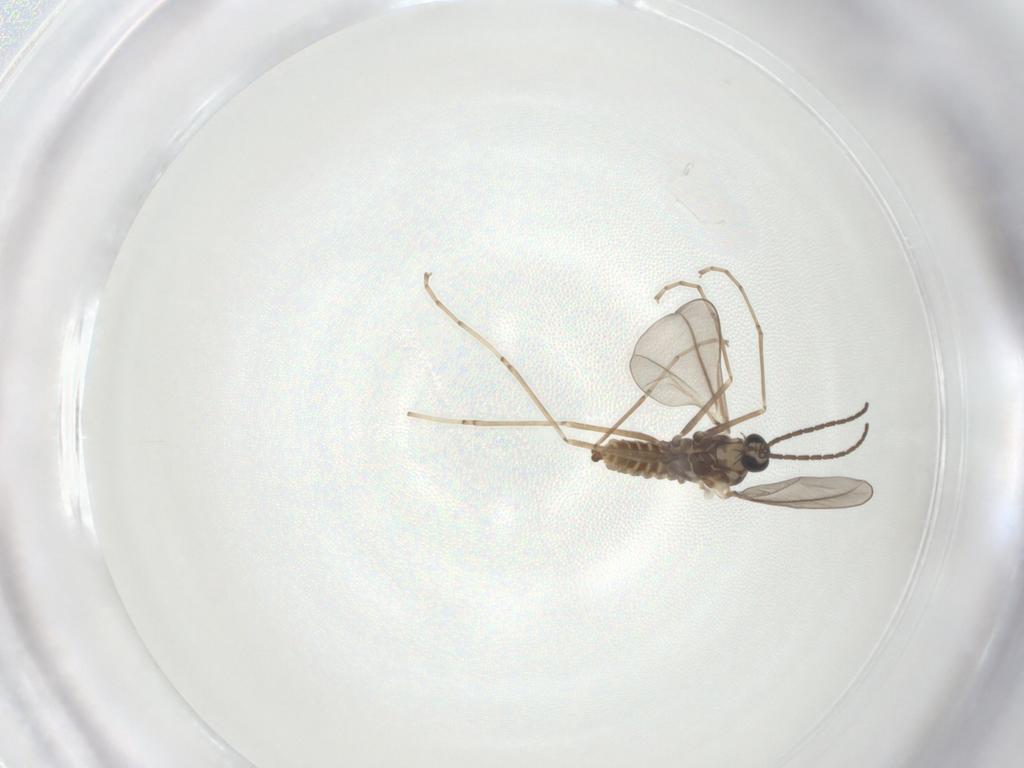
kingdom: Animalia
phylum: Arthropoda
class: Insecta
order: Diptera
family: Cecidomyiidae
